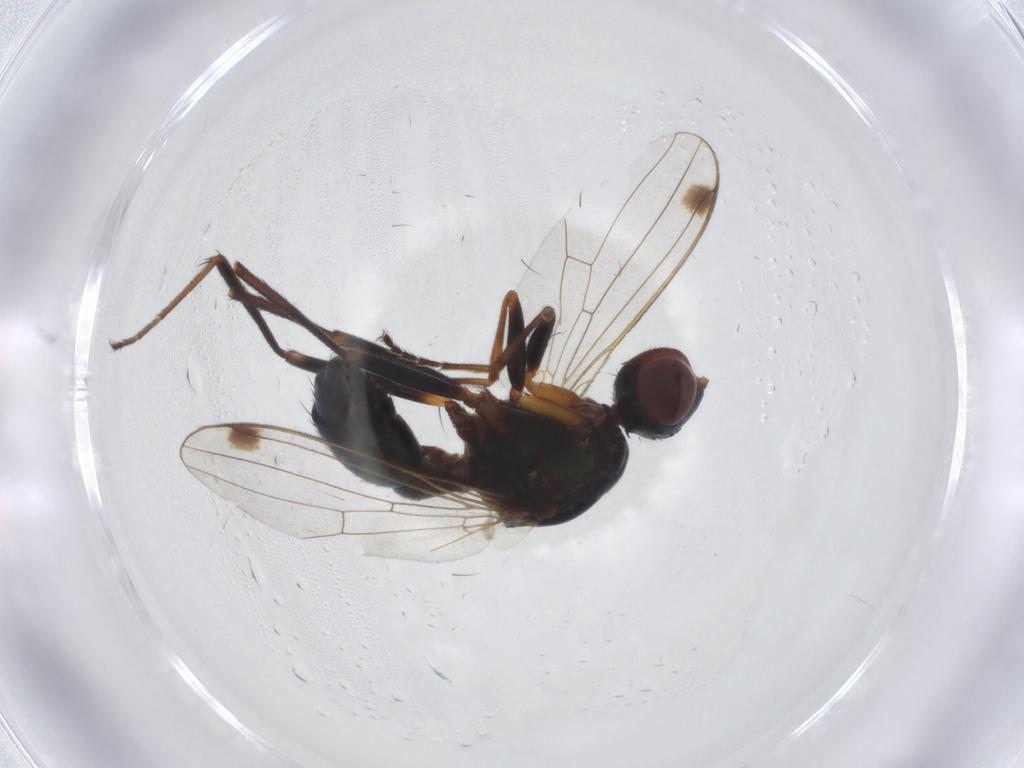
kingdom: Animalia
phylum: Arthropoda
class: Insecta
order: Diptera
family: Sepsidae
